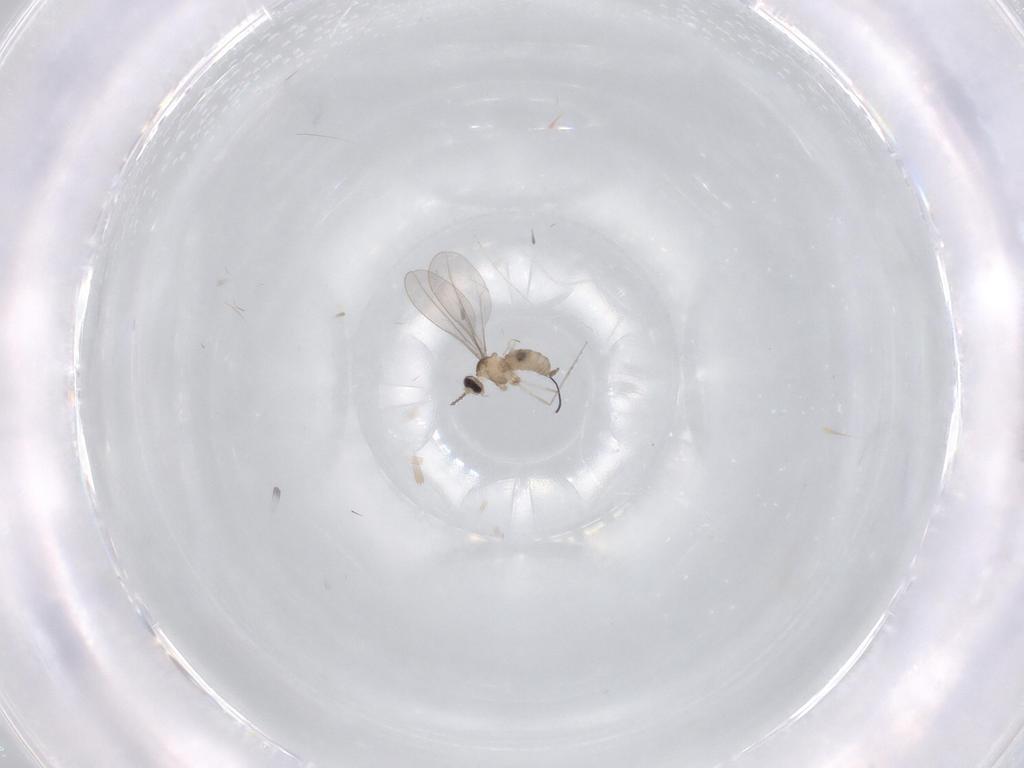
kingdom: Animalia
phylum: Arthropoda
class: Insecta
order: Diptera
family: Cecidomyiidae
